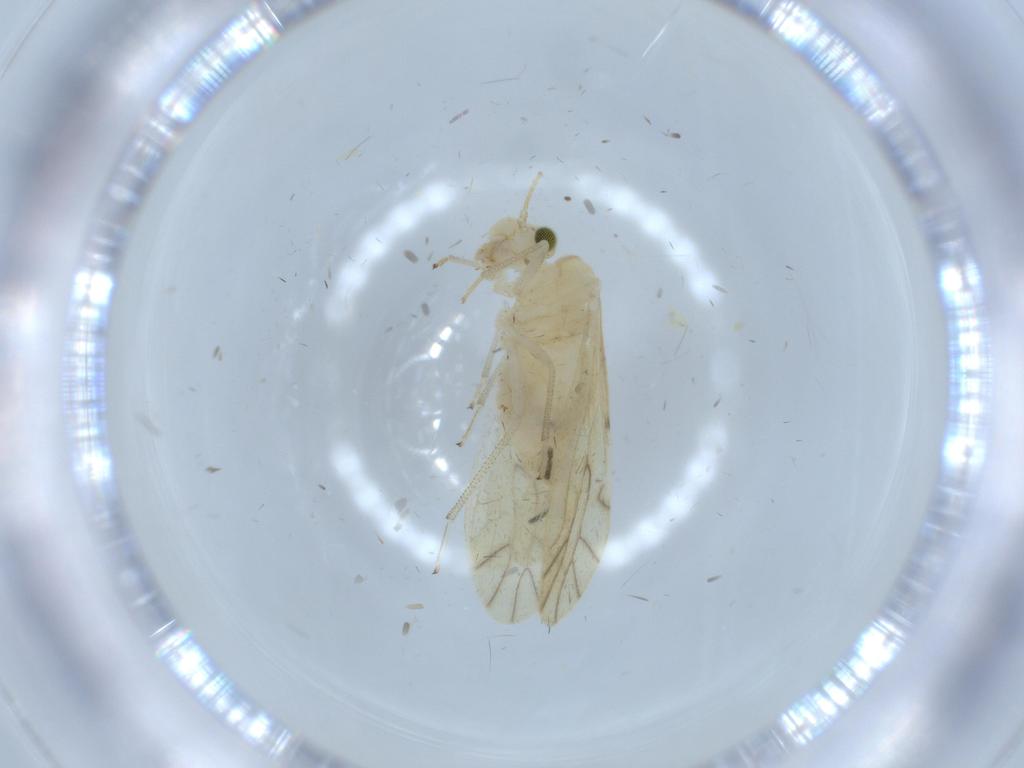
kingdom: Animalia
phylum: Arthropoda
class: Insecta
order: Psocodea
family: Caeciliusidae
